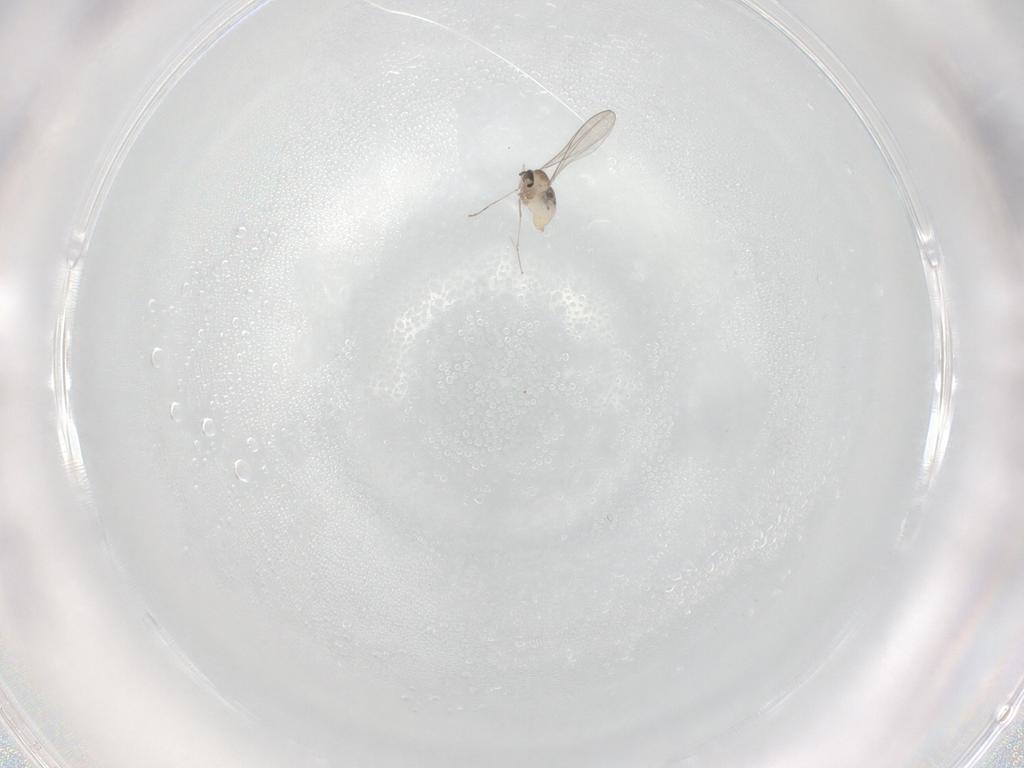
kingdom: Animalia
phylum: Arthropoda
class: Insecta
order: Diptera
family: Cecidomyiidae
